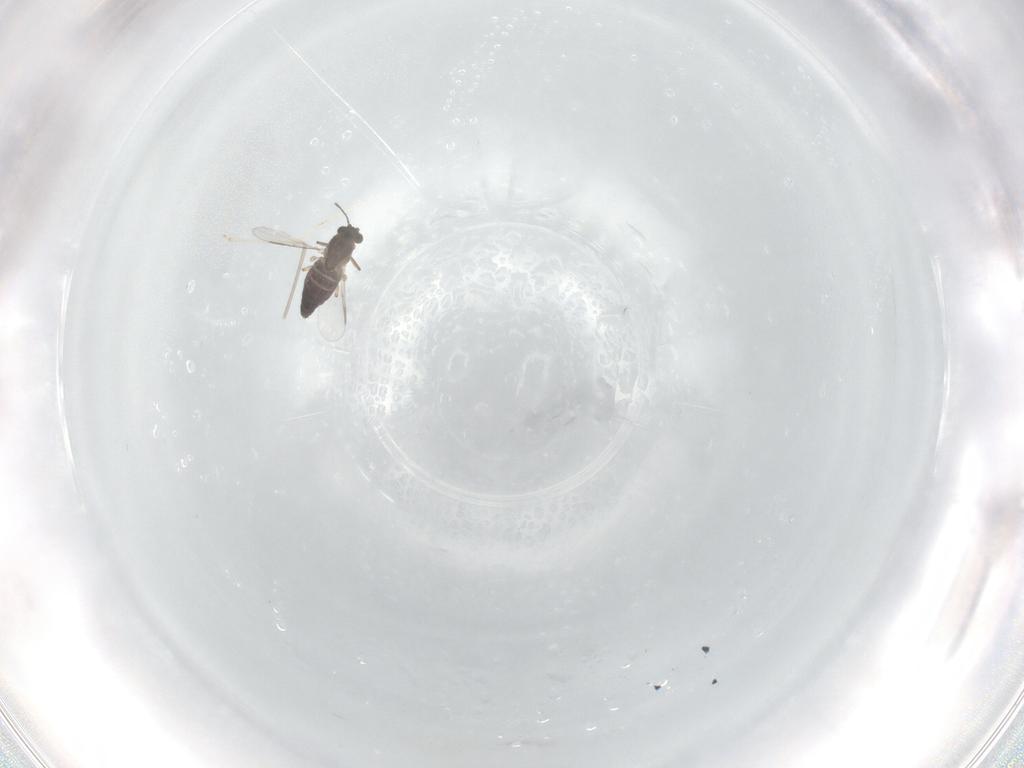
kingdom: Animalia
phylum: Arthropoda
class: Insecta
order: Diptera
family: Chironomidae
